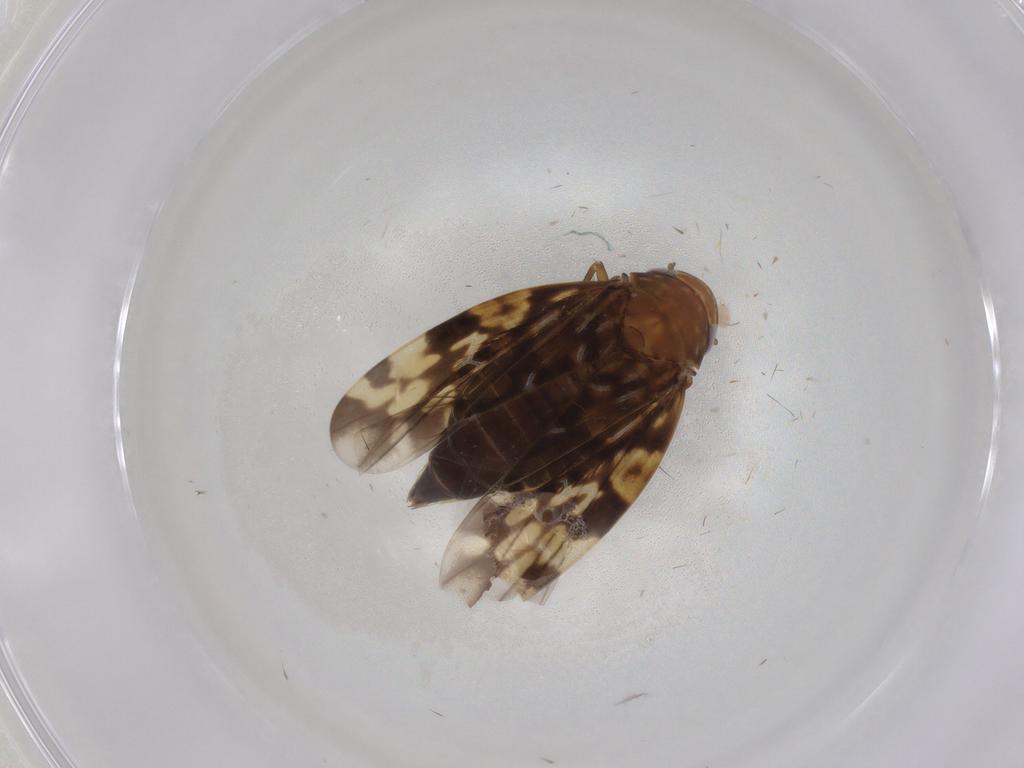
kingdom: Animalia
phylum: Arthropoda
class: Insecta
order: Hemiptera
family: Cicadellidae
